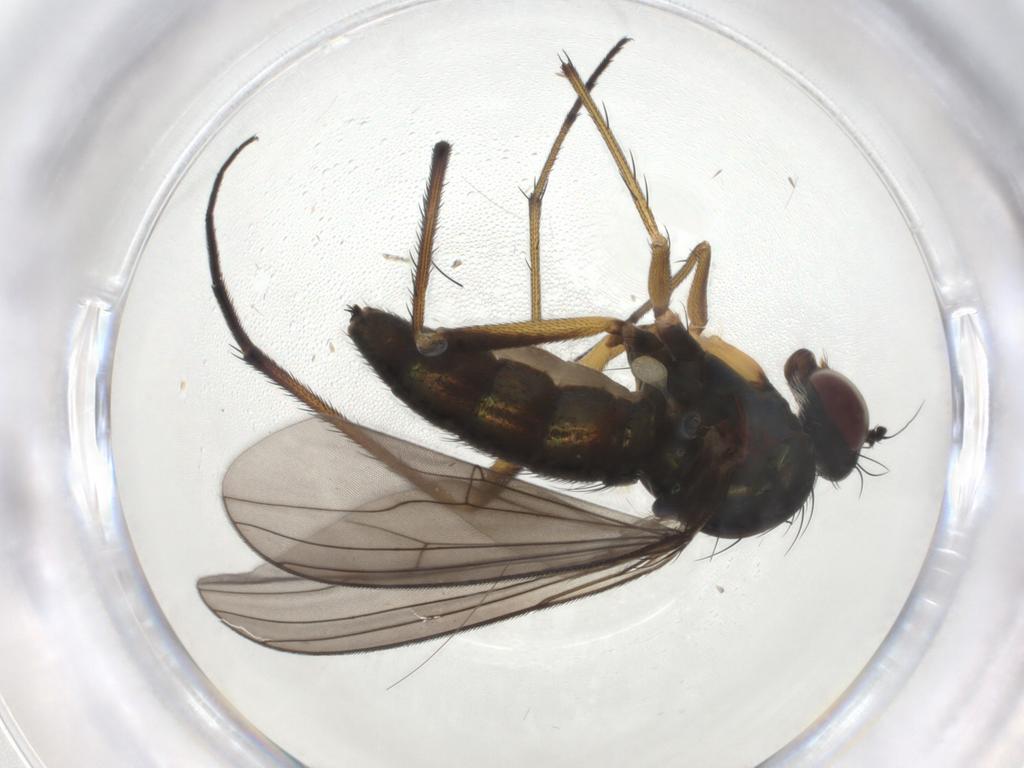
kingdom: Animalia
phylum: Arthropoda
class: Insecta
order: Diptera
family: Dolichopodidae
